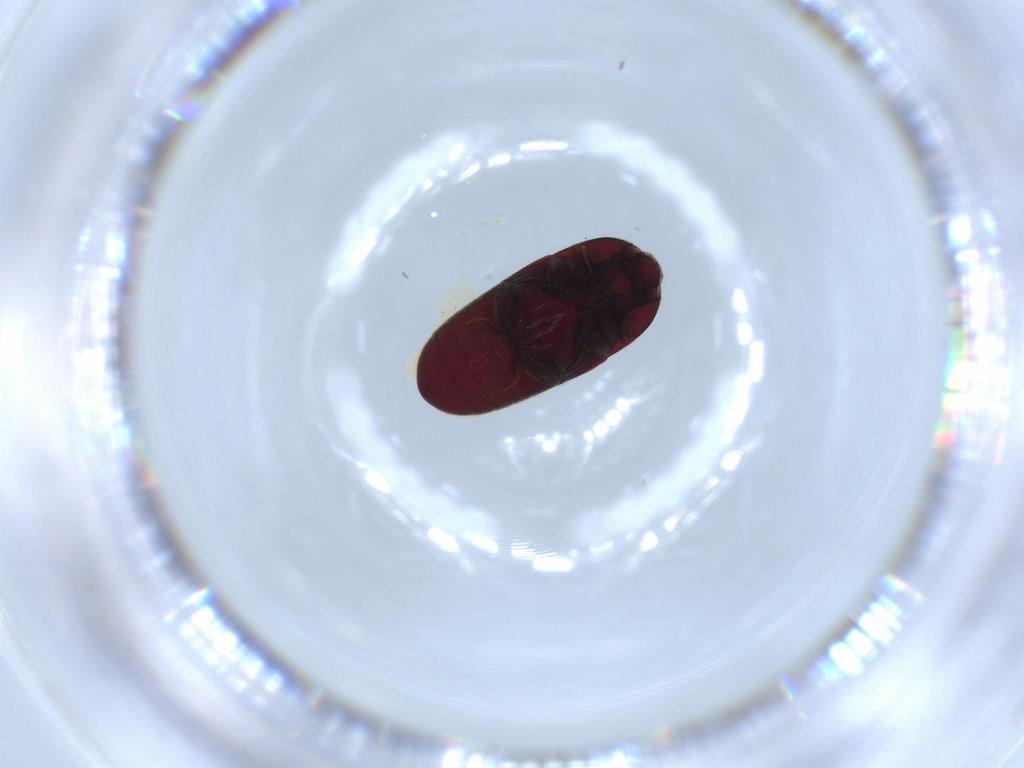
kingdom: Animalia
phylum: Arthropoda
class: Insecta
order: Coleoptera
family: Throscidae
